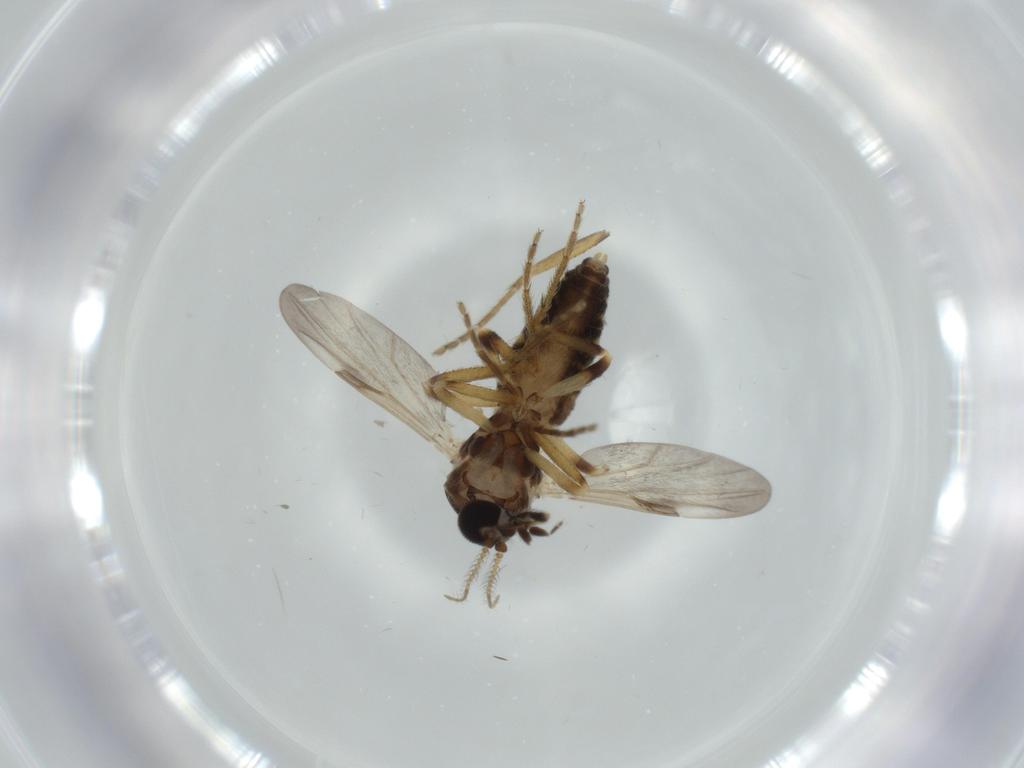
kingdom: Animalia
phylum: Arthropoda
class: Insecta
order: Diptera
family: Ceratopogonidae
